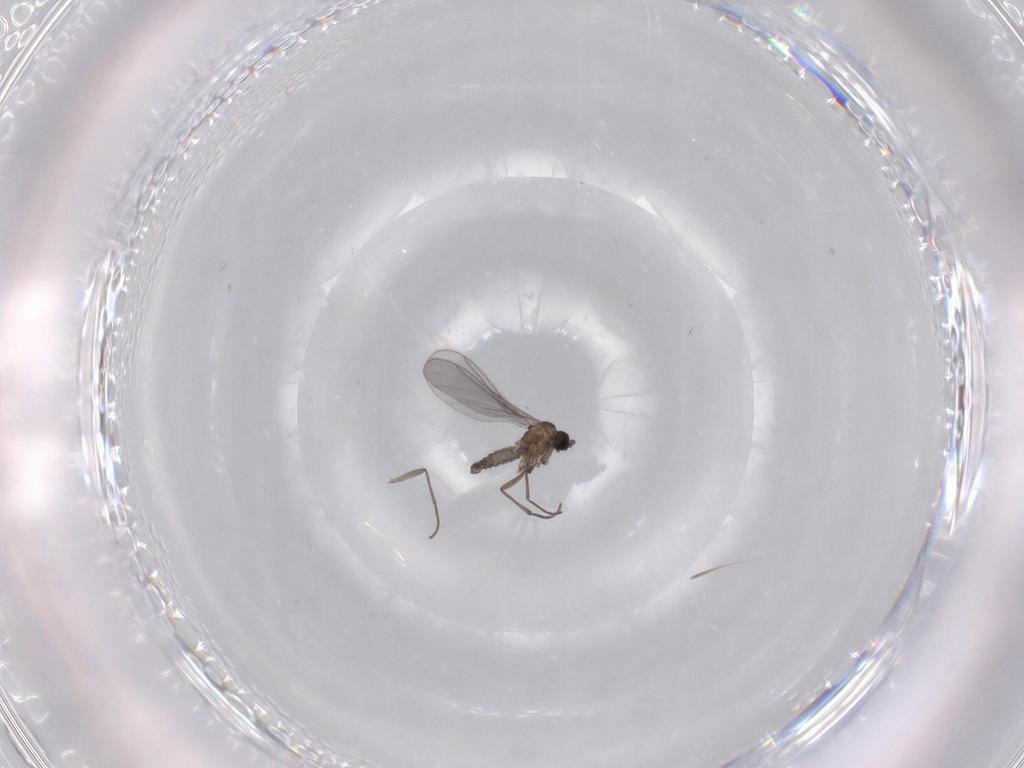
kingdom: Animalia
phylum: Arthropoda
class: Insecta
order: Diptera
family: Sciaridae
